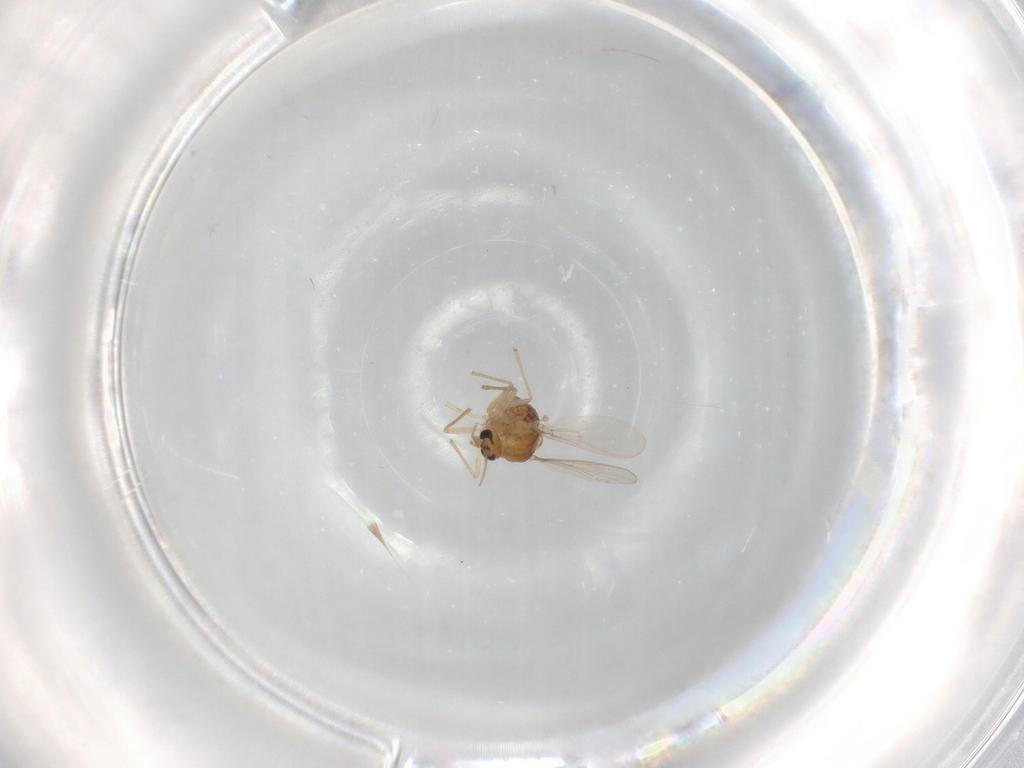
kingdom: Animalia
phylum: Arthropoda
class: Insecta
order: Diptera
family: Chironomidae
